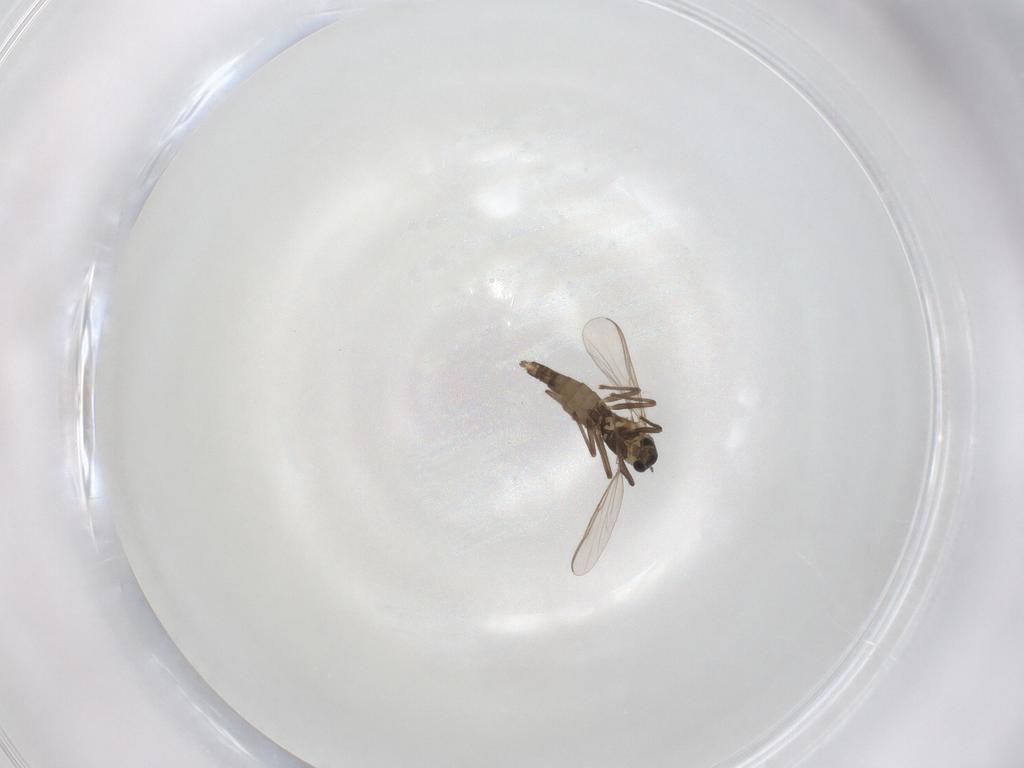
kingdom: Animalia
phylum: Arthropoda
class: Insecta
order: Diptera
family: Chironomidae
